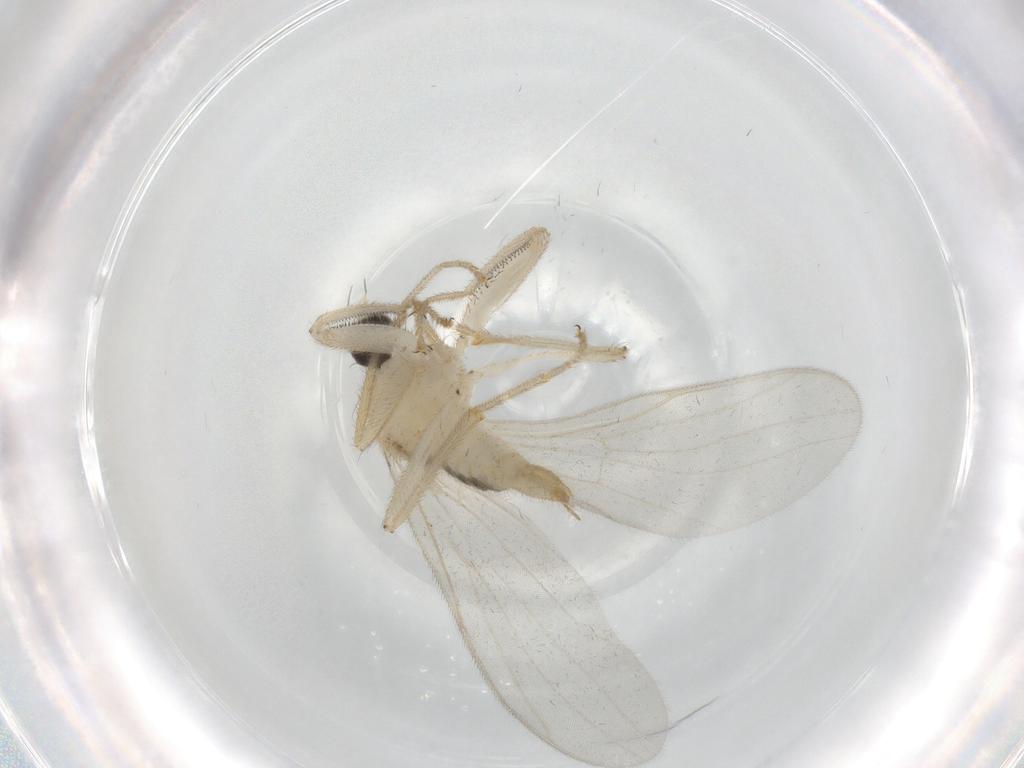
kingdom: Animalia
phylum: Arthropoda
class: Insecta
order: Diptera
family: Hybotidae
